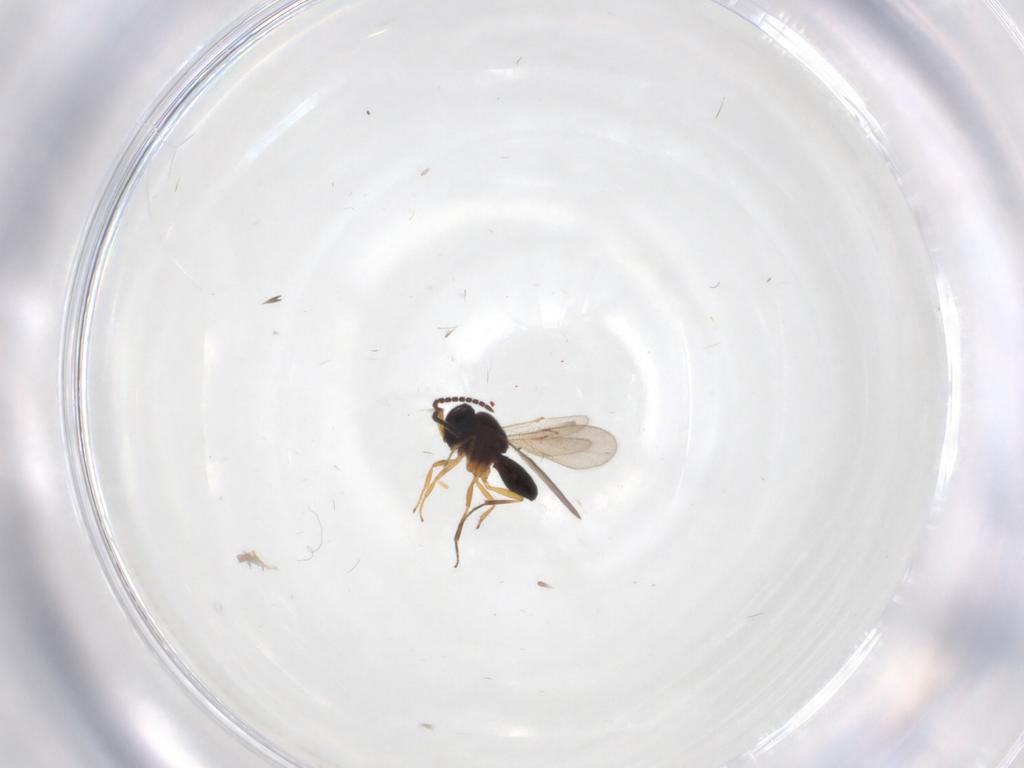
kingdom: Animalia
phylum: Arthropoda
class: Insecta
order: Hymenoptera
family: Scelionidae
